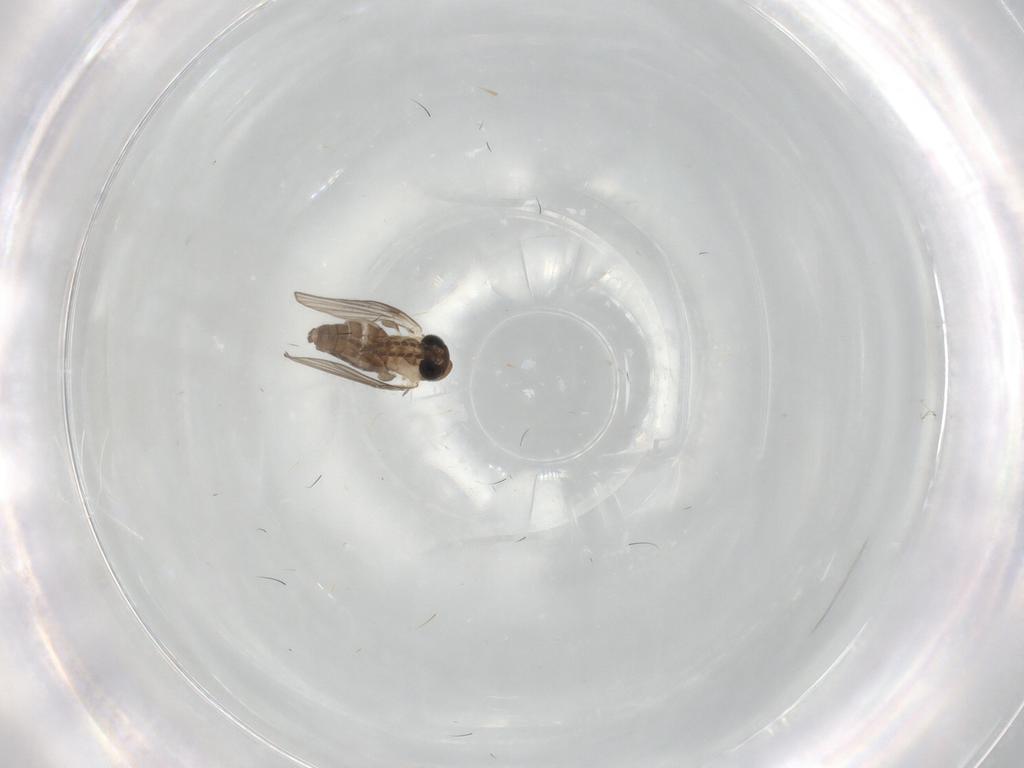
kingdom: Animalia
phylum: Arthropoda
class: Insecta
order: Diptera
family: Psychodidae
